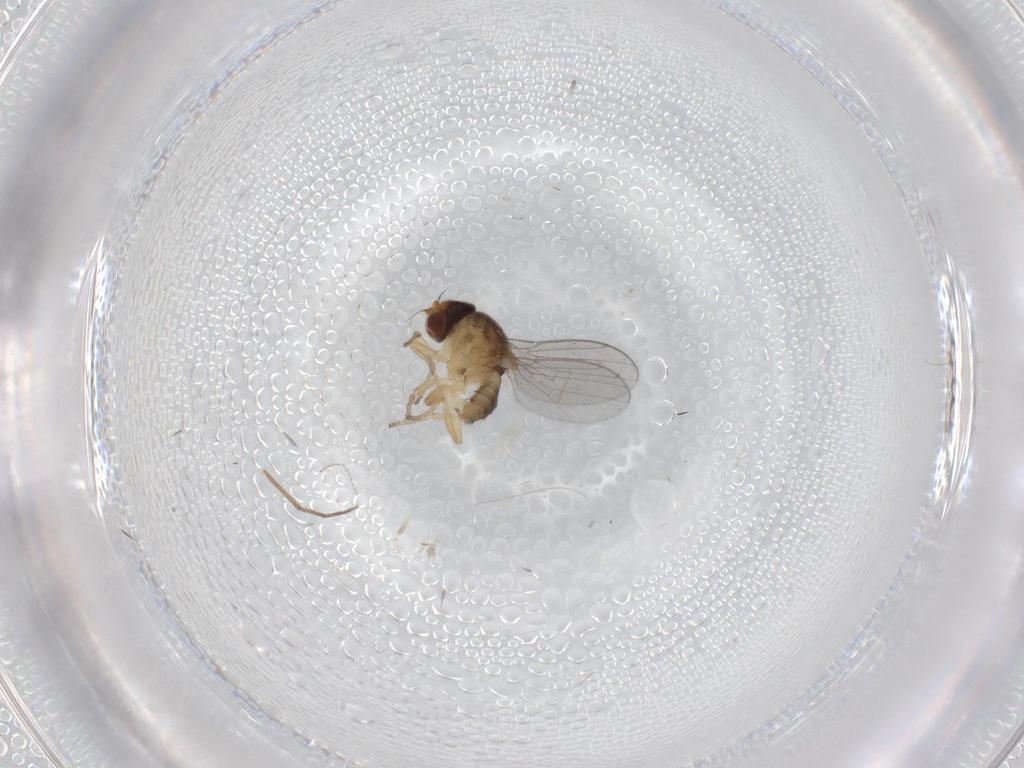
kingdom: Animalia
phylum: Arthropoda
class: Insecta
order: Diptera
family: Chloropidae
